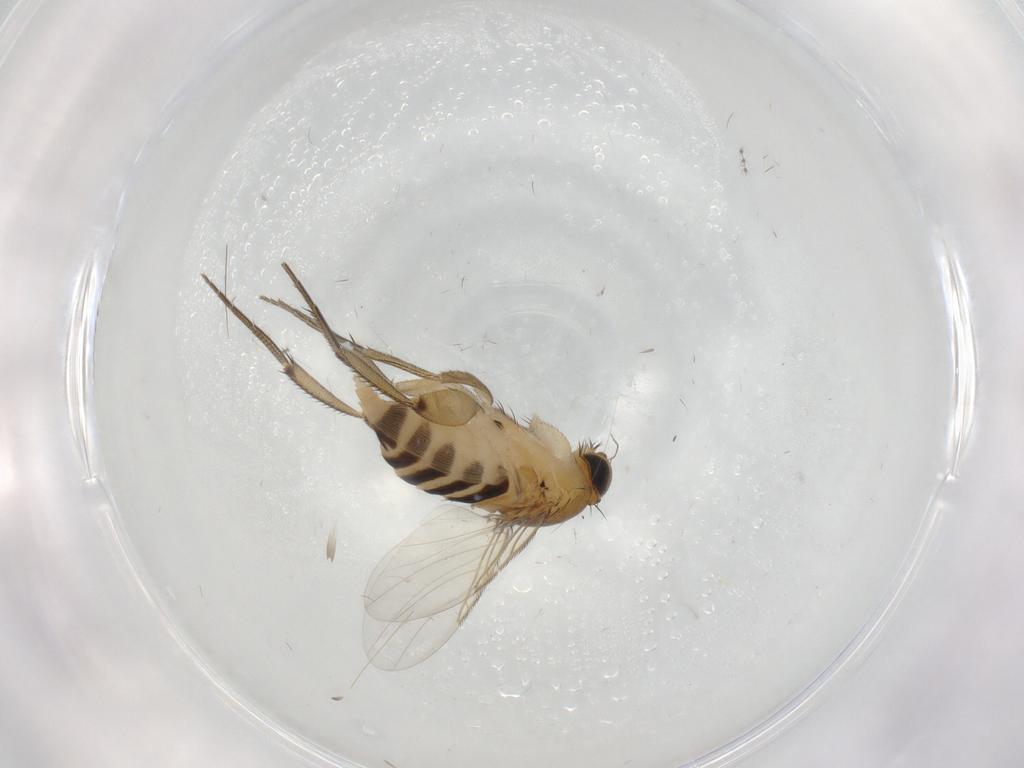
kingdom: Animalia
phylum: Arthropoda
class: Insecta
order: Diptera
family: Phoridae
